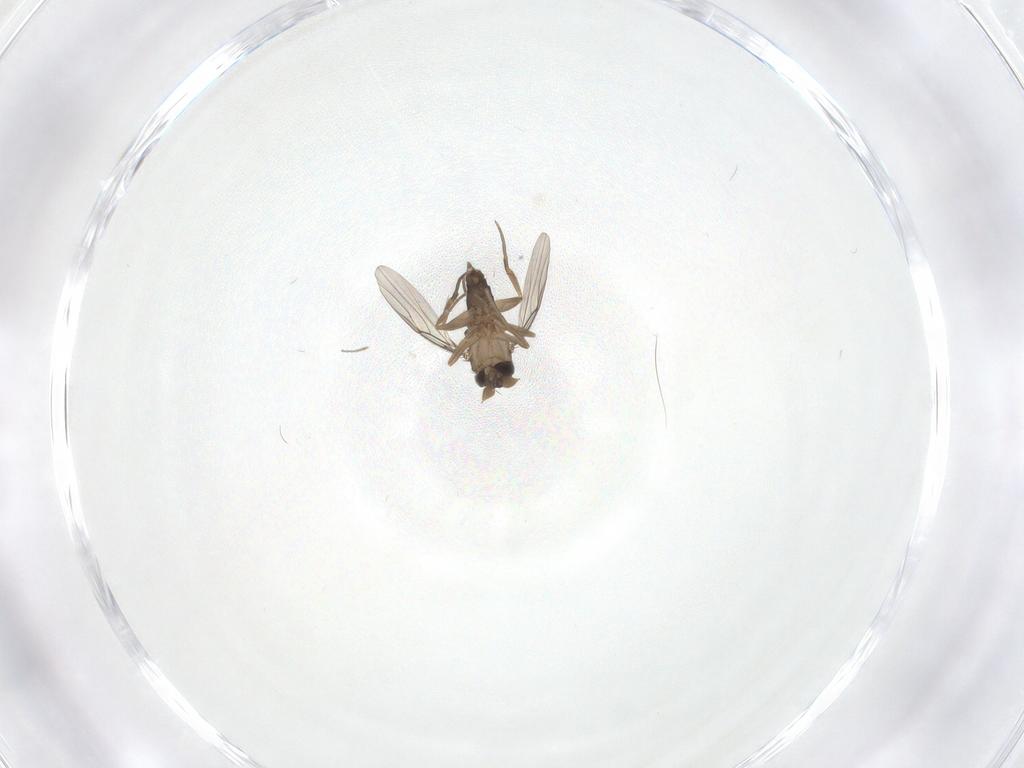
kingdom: Animalia
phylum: Arthropoda
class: Insecta
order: Diptera
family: Phoridae
